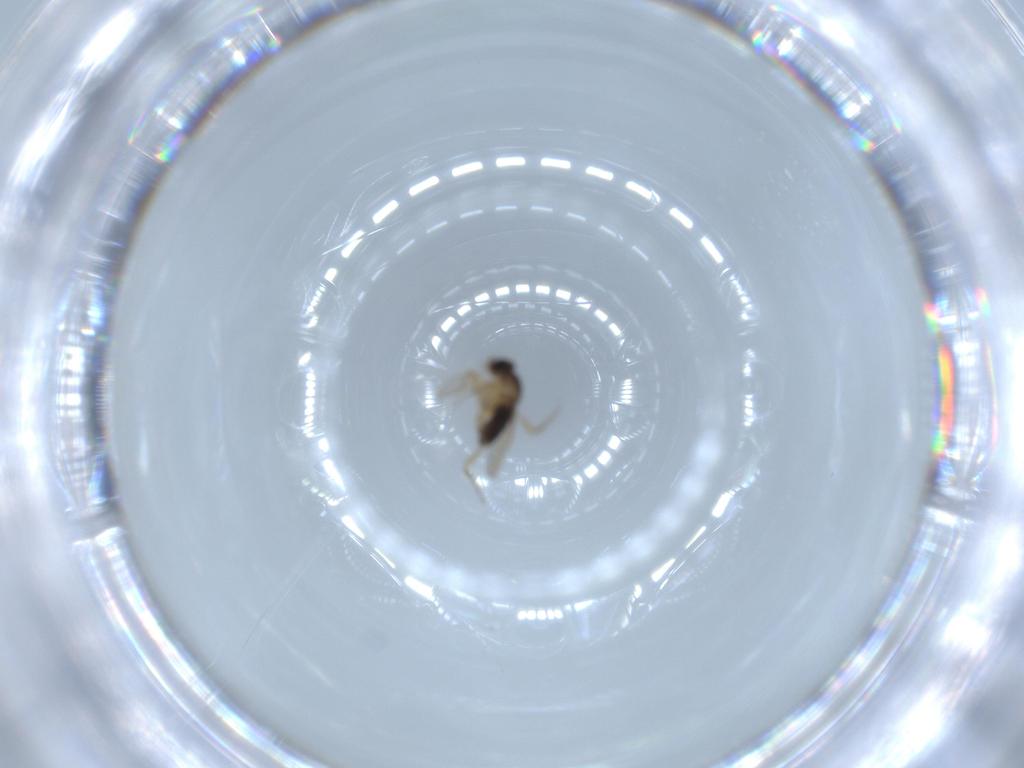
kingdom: Animalia
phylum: Arthropoda
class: Insecta
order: Diptera
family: Phoridae
